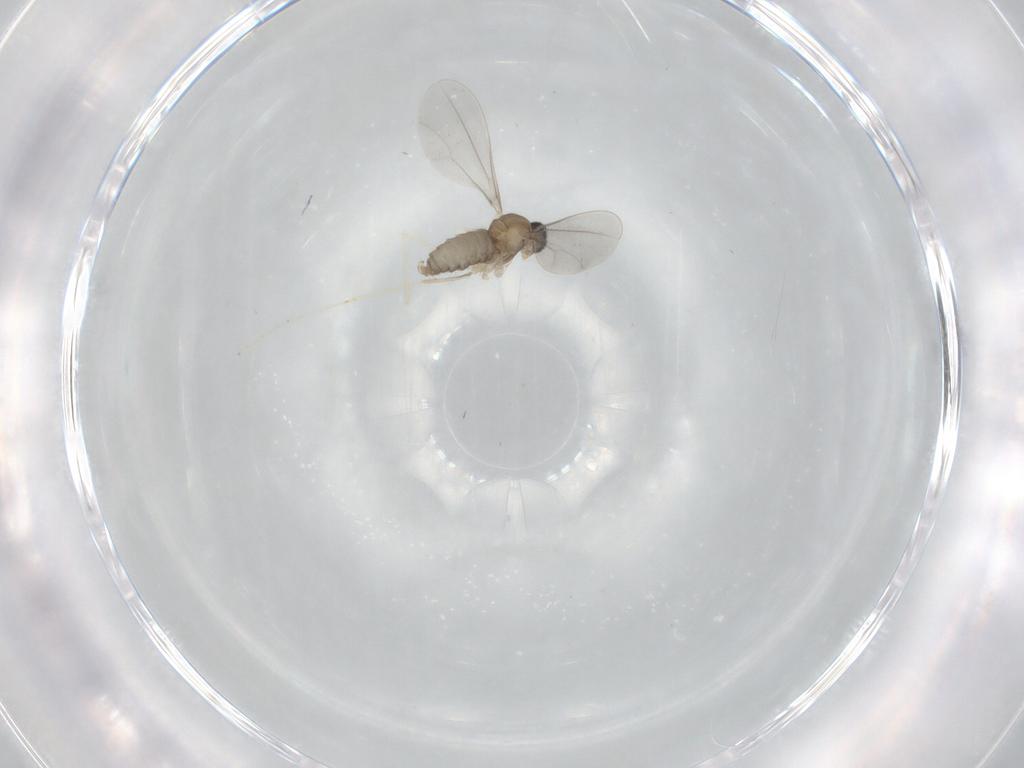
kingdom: Animalia
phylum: Arthropoda
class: Insecta
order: Diptera
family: Cecidomyiidae
